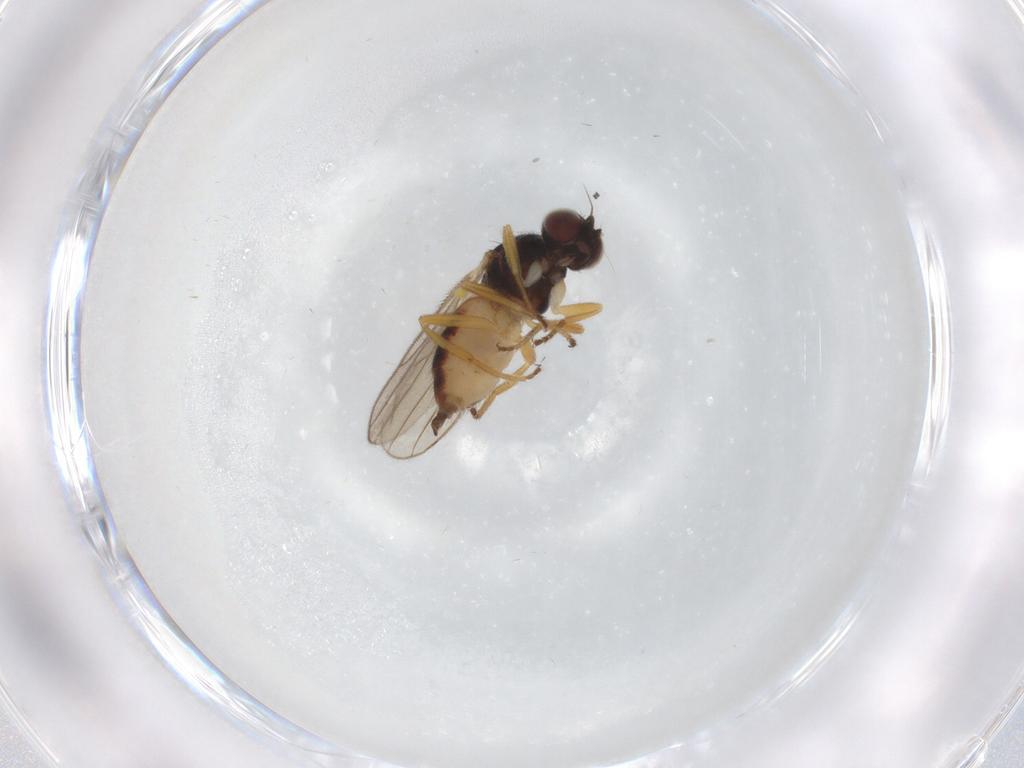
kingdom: Animalia
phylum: Arthropoda
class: Insecta
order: Diptera
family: Chloropidae
